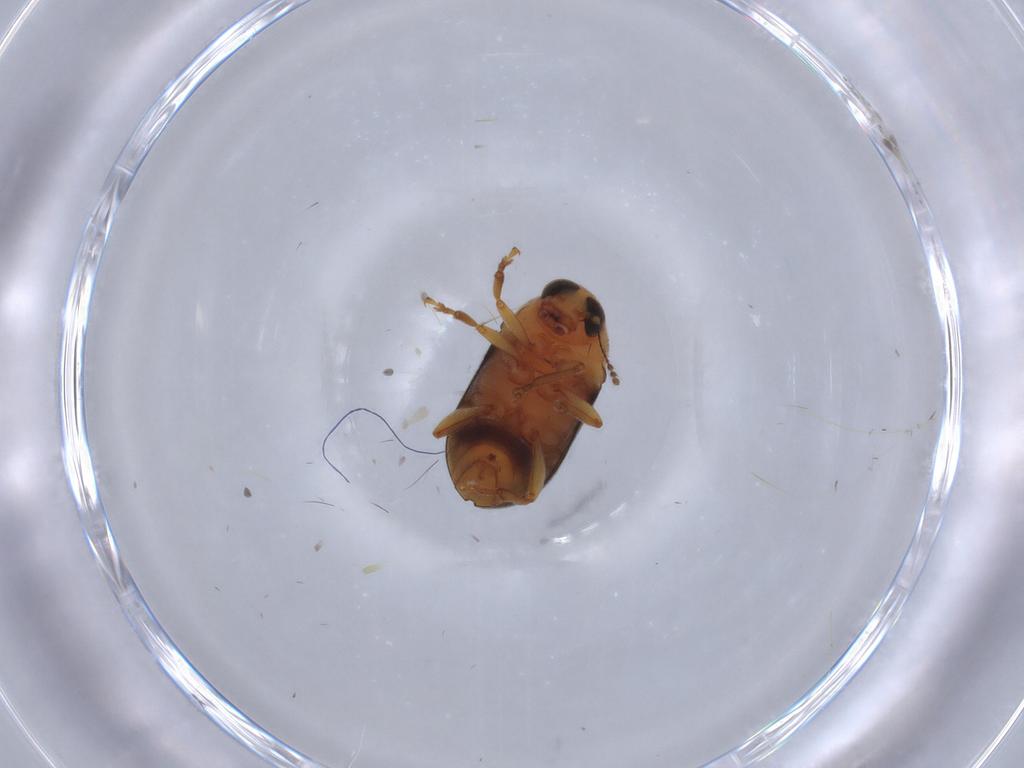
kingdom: Animalia
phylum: Arthropoda
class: Insecta
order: Coleoptera
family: Anthribidae
